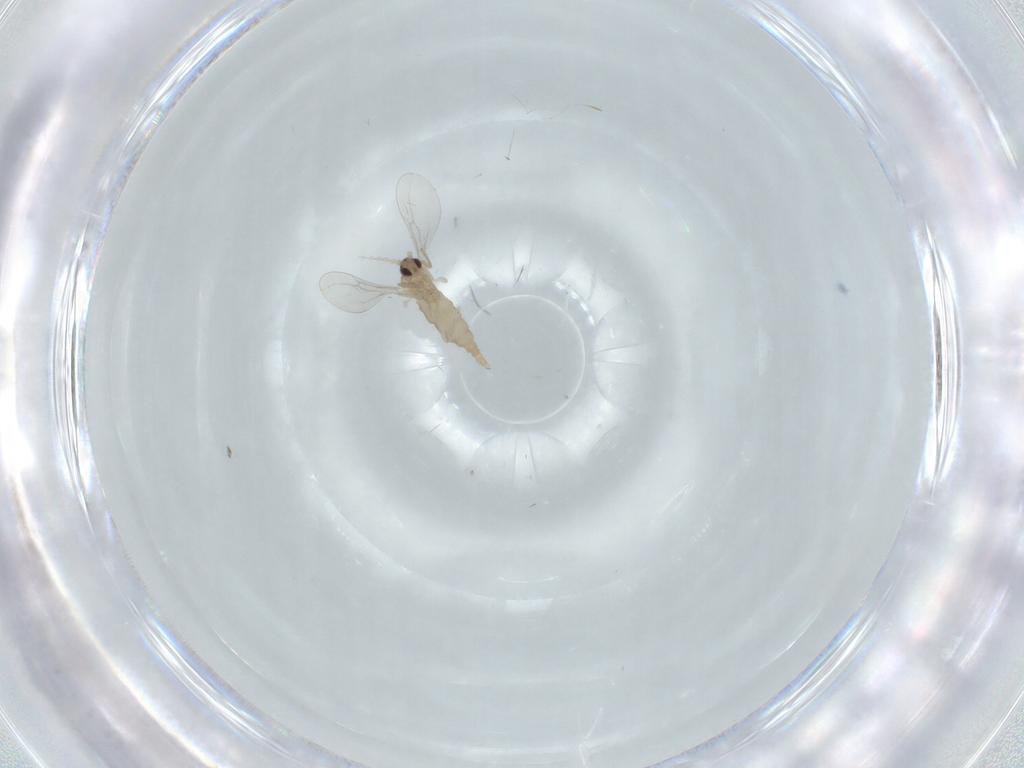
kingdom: Animalia
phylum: Arthropoda
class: Insecta
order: Diptera
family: Cecidomyiidae
